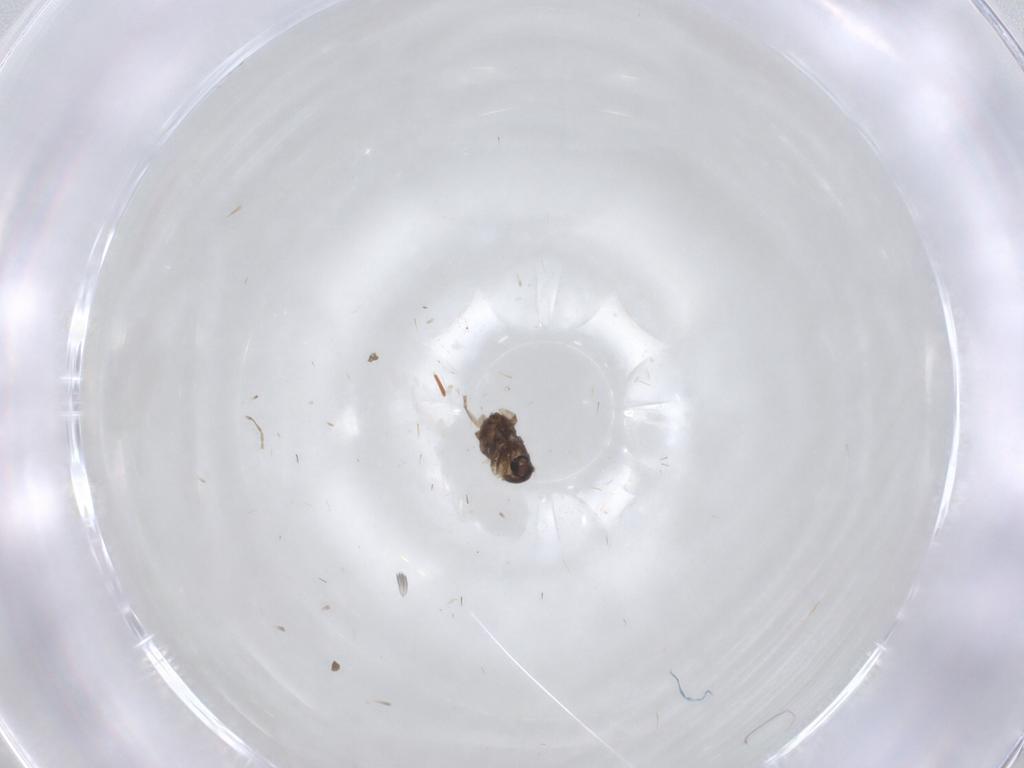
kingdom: Animalia
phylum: Arthropoda
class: Insecta
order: Diptera
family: Cecidomyiidae
